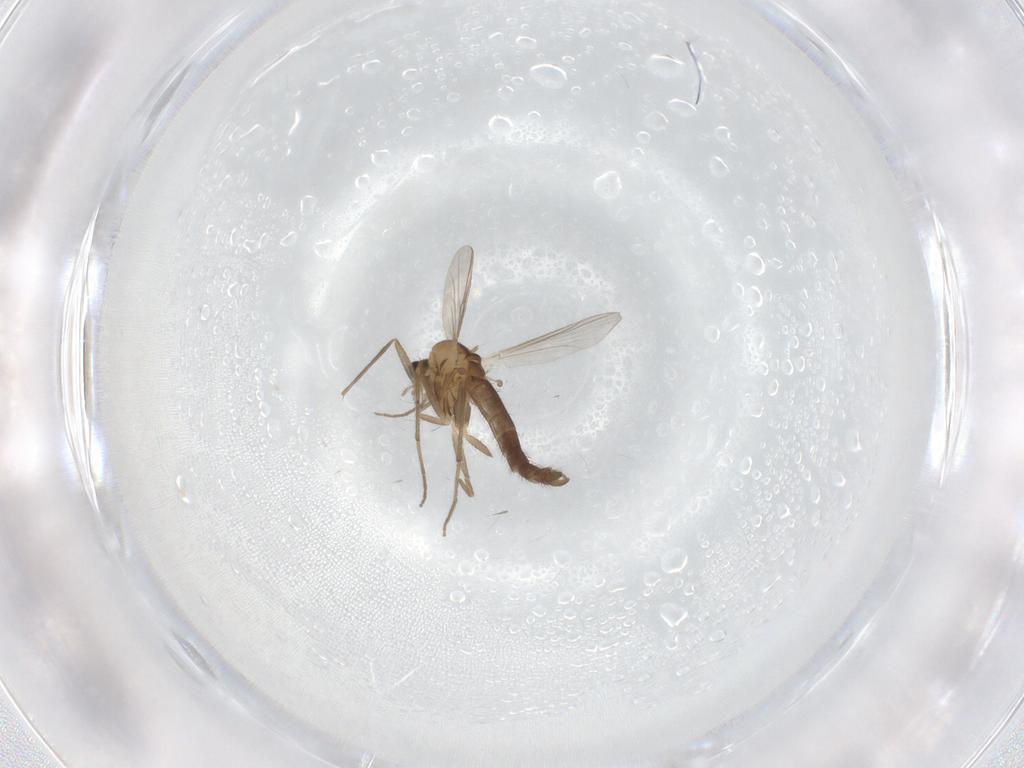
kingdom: Animalia
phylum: Arthropoda
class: Insecta
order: Diptera
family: Chironomidae
